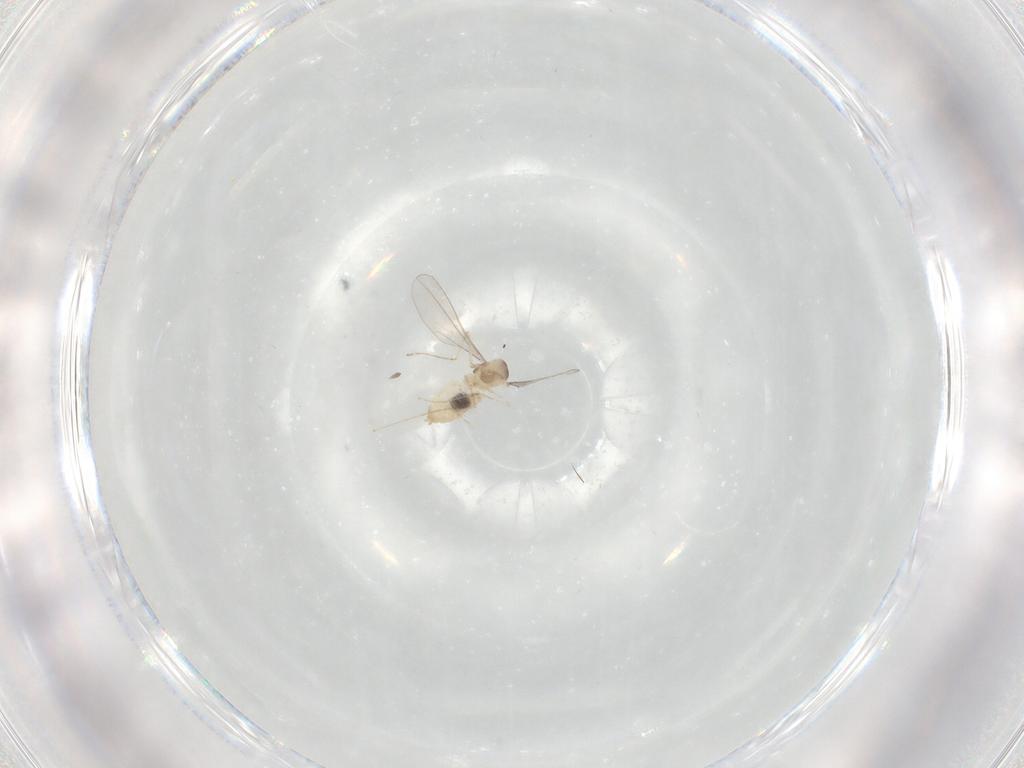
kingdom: Animalia
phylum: Arthropoda
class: Insecta
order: Diptera
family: Cecidomyiidae
